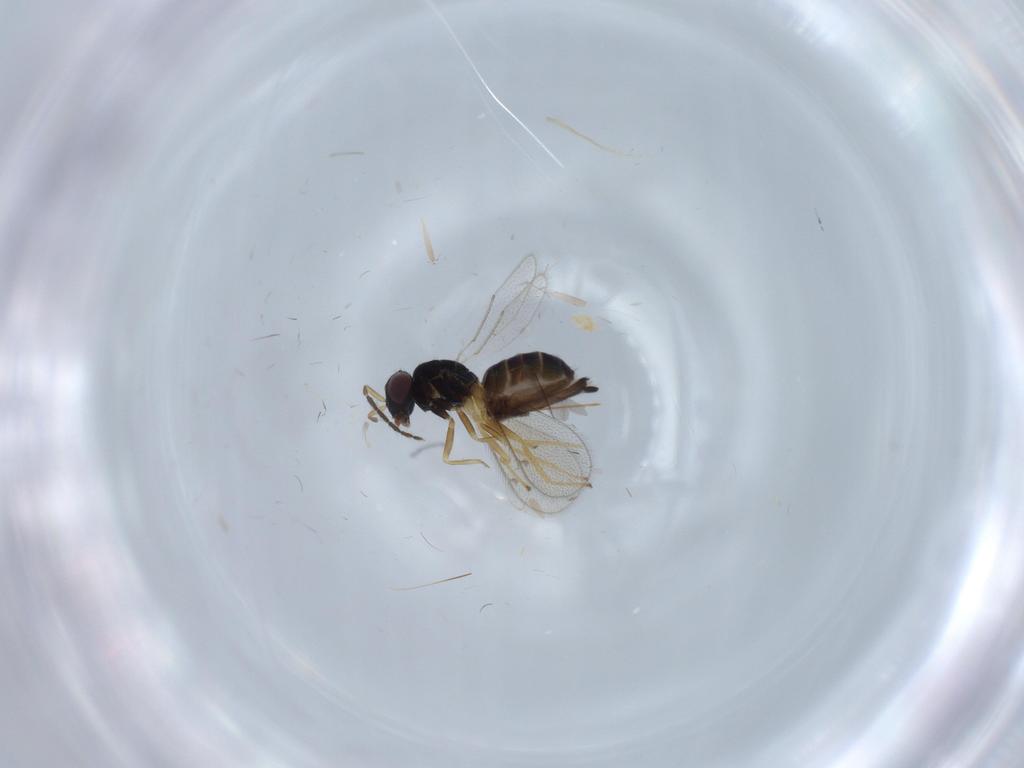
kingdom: Animalia
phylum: Arthropoda
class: Insecta
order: Hymenoptera
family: Eulophidae
